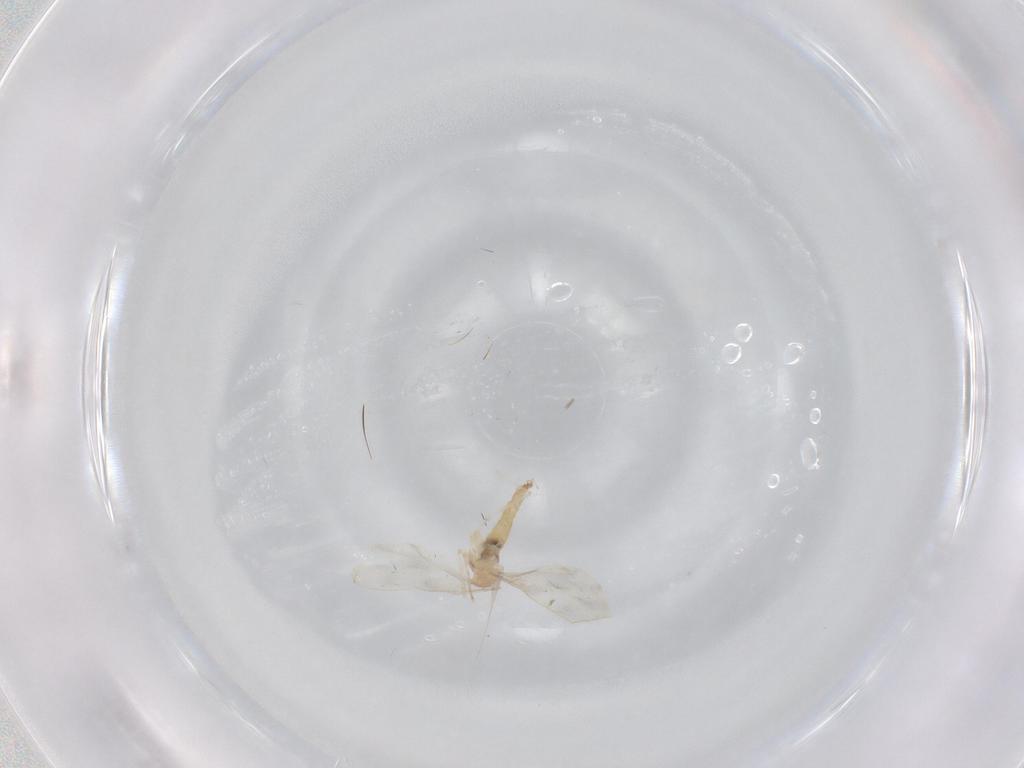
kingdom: Animalia
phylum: Arthropoda
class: Insecta
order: Diptera
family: Cecidomyiidae
